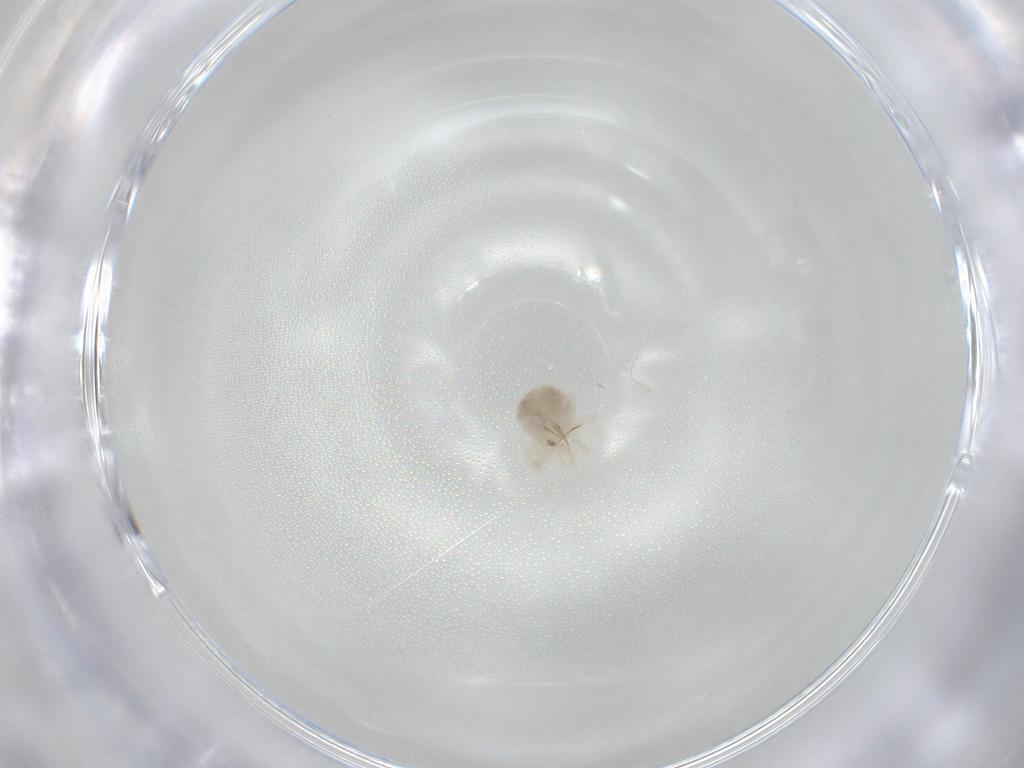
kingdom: Animalia
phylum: Arthropoda
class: Arachnida
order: Trombidiformes
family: Anystidae
